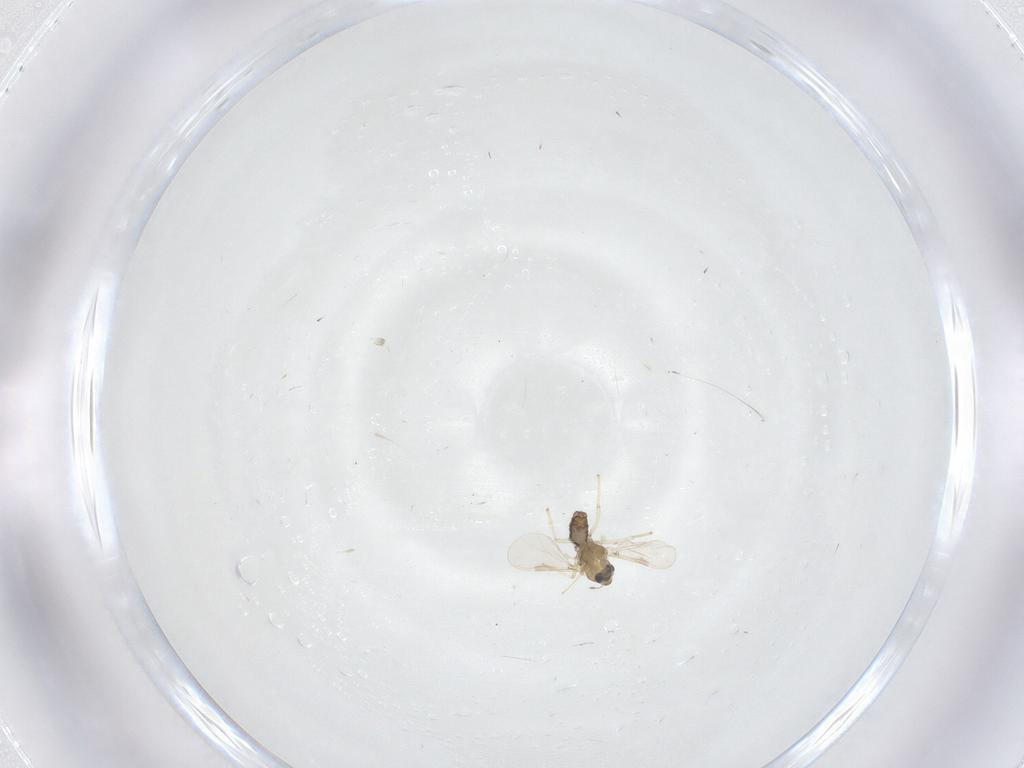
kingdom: Animalia
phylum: Arthropoda
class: Insecta
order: Diptera
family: Chironomidae
